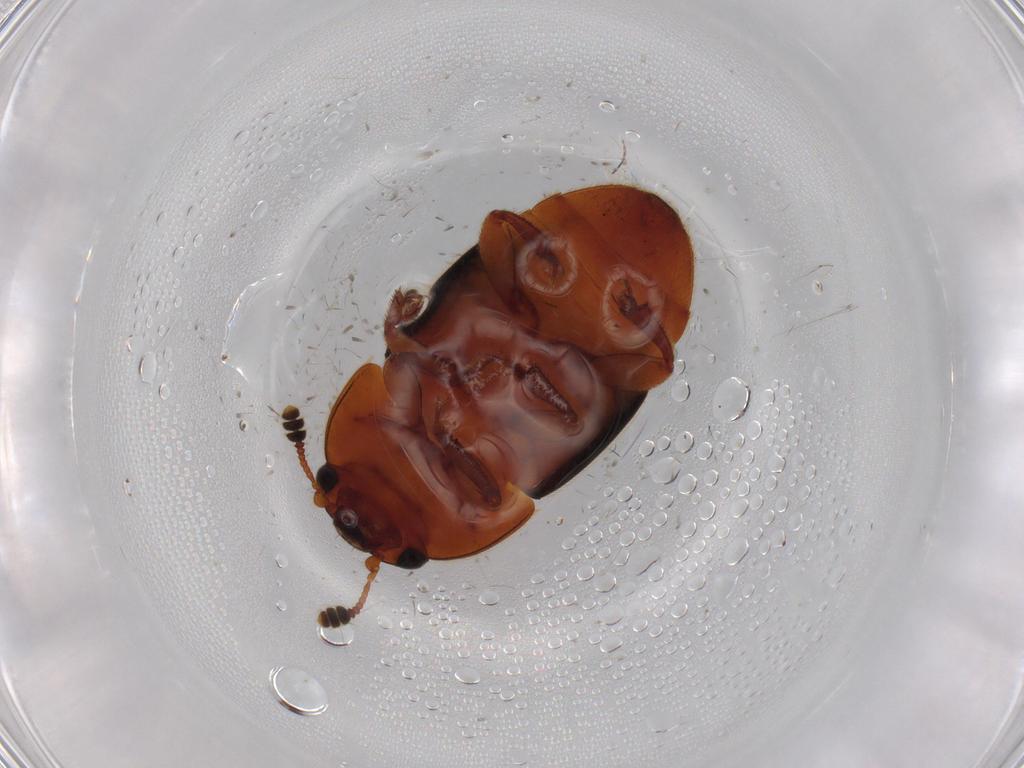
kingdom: Animalia
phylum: Arthropoda
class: Insecta
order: Coleoptera
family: Nitidulidae
